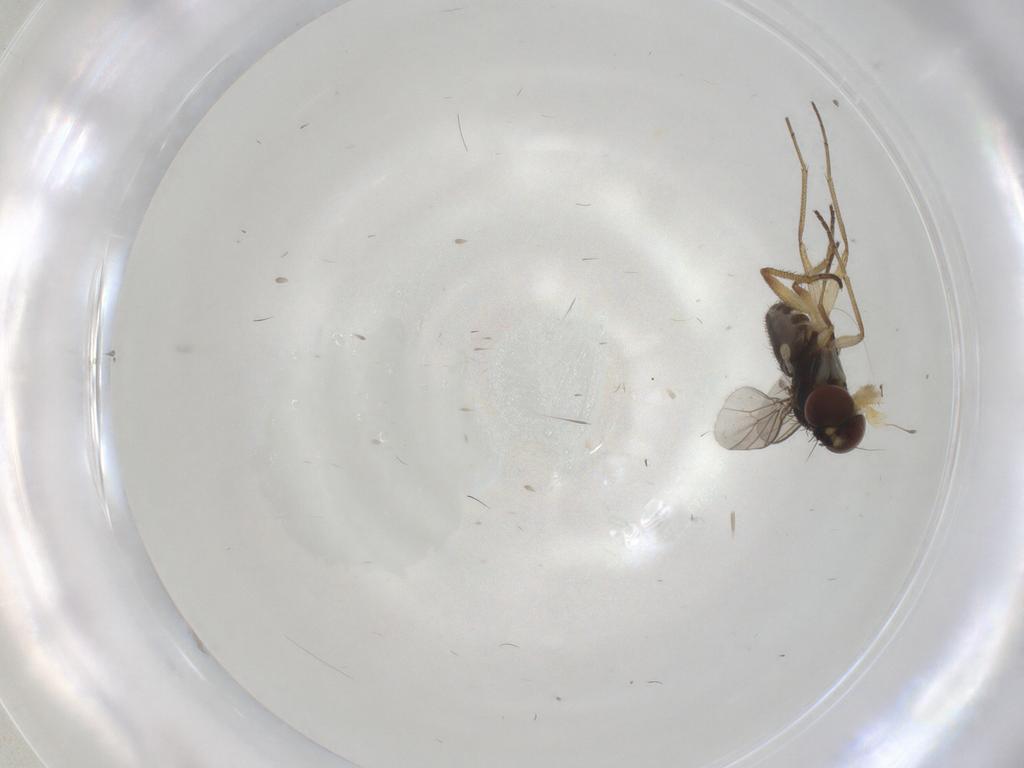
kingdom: Animalia
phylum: Arthropoda
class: Insecta
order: Diptera
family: Dolichopodidae
